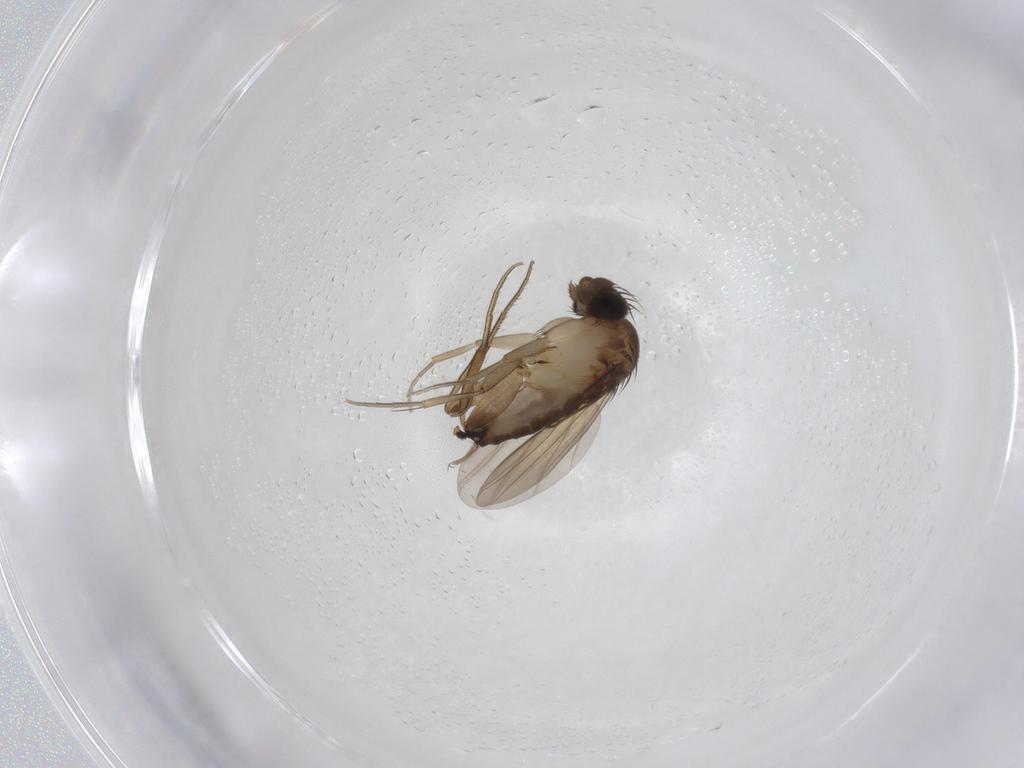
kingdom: Animalia
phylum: Arthropoda
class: Insecta
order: Diptera
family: Phoridae
